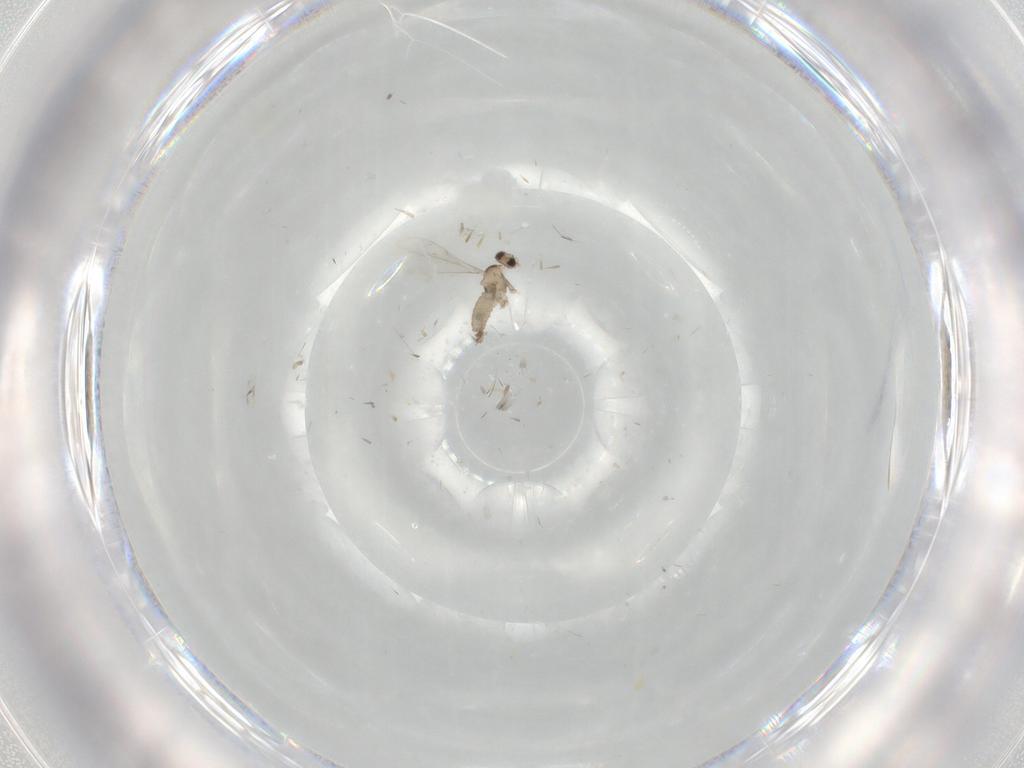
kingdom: Animalia
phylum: Arthropoda
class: Insecta
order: Diptera
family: Cecidomyiidae
